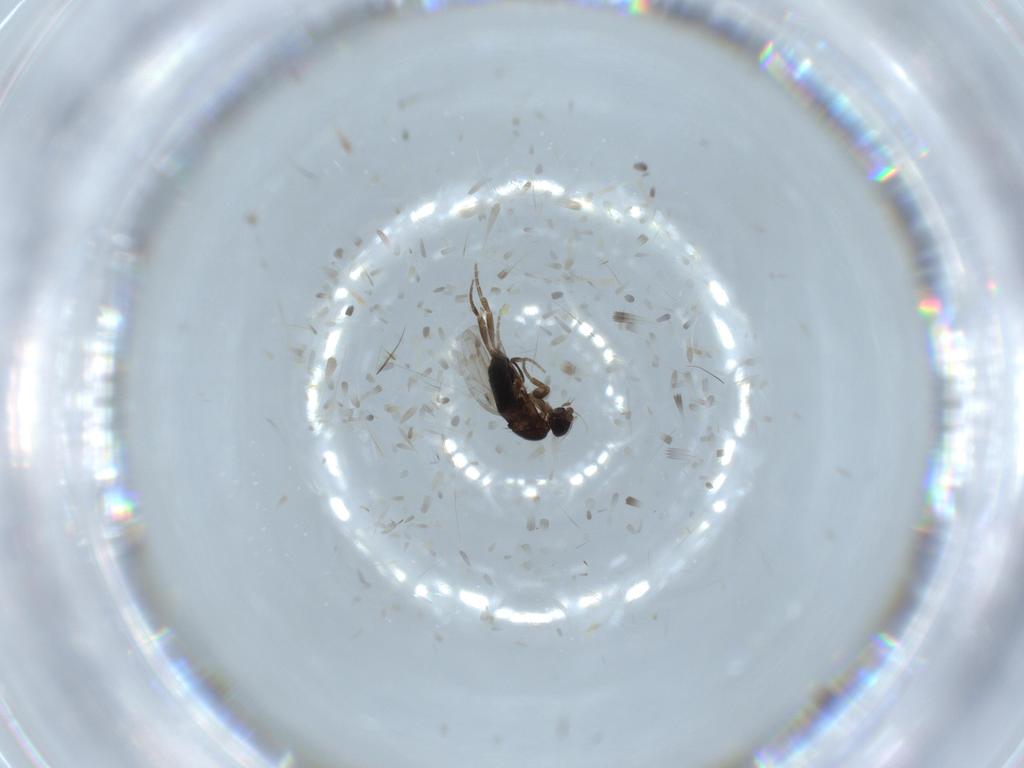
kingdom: Animalia
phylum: Arthropoda
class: Insecta
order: Diptera
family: Phoridae
